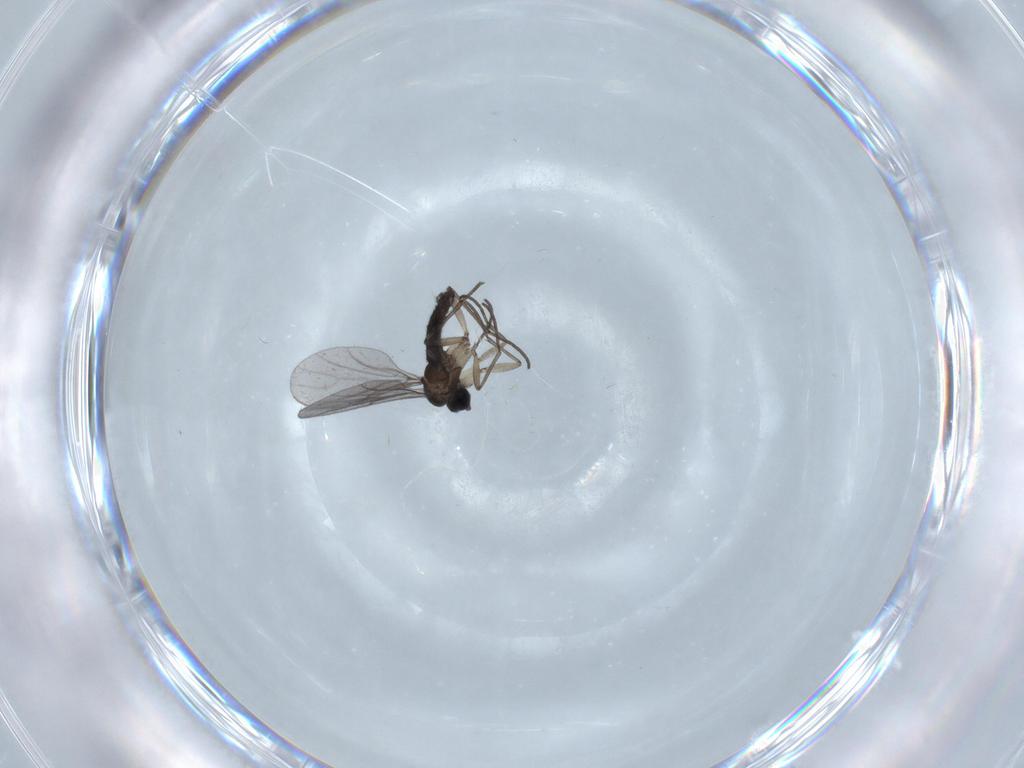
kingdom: Animalia
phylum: Arthropoda
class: Insecta
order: Diptera
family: Sciaridae
